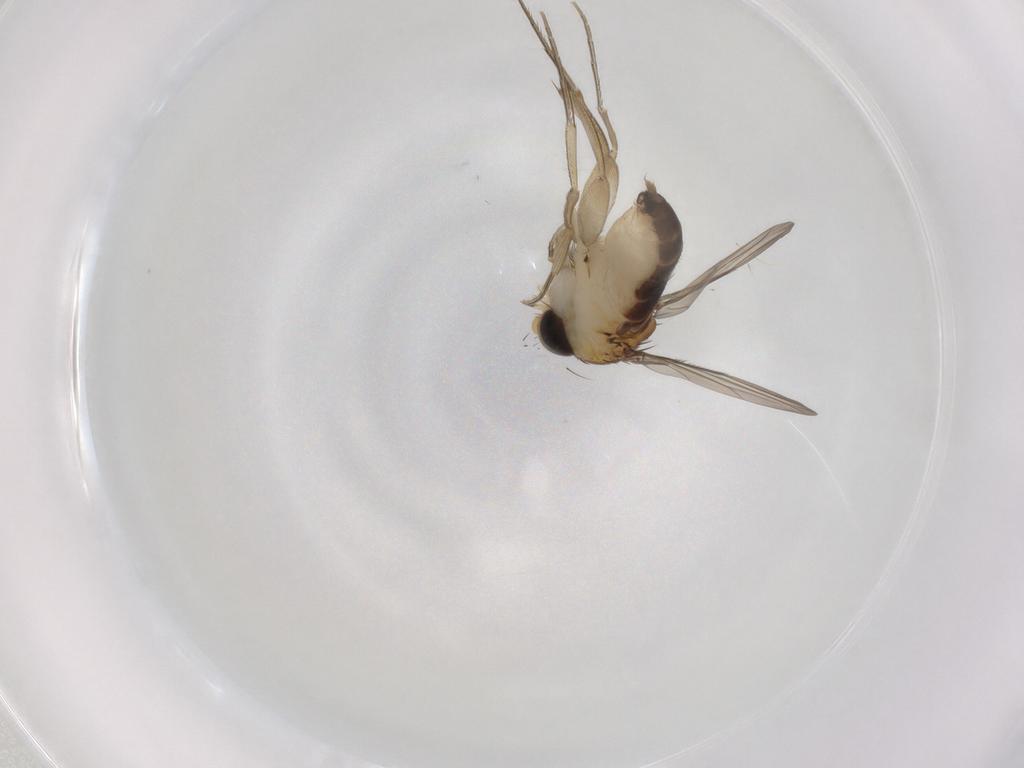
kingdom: Animalia
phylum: Arthropoda
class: Insecta
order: Diptera
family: Phoridae
